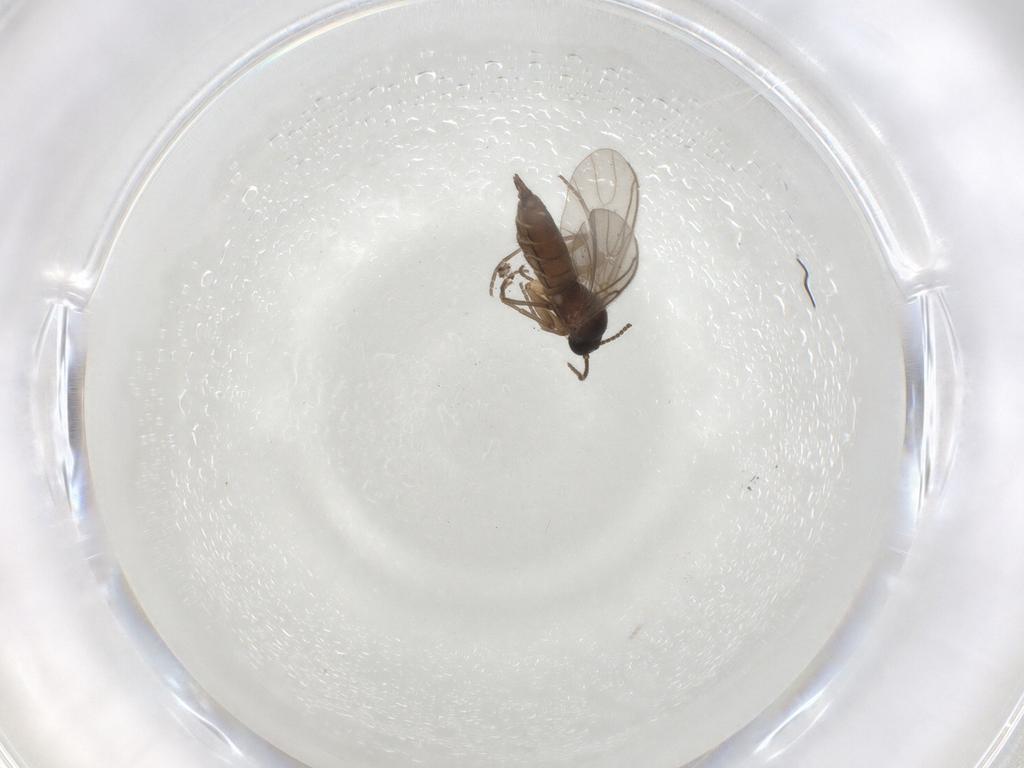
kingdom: Animalia
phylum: Arthropoda
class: Insecta
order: Diptera
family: Sciaridae
